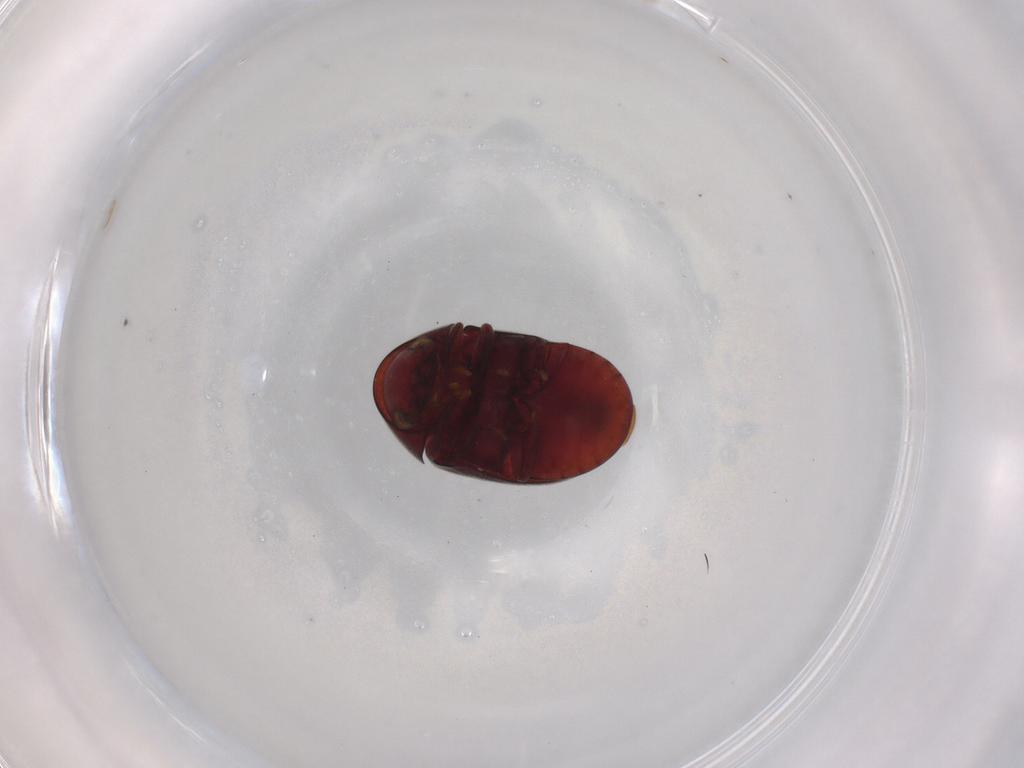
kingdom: Animalia
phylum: Arthropoda
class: Insecta
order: Coleoptera
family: Ptinidae
